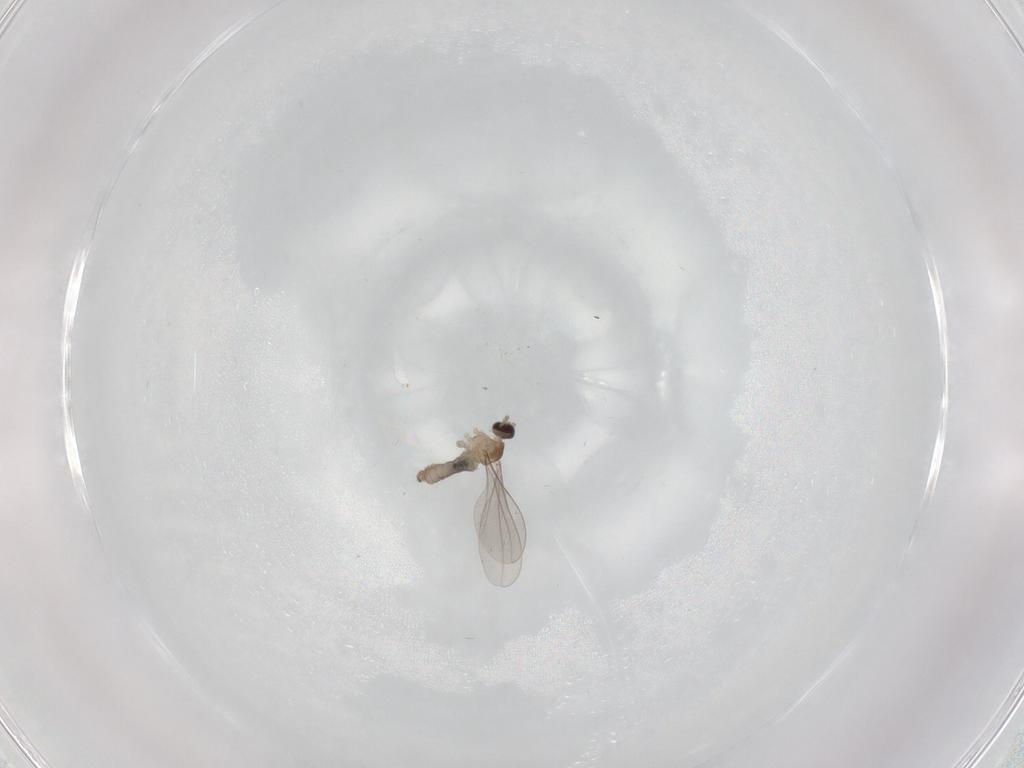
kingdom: Animalia
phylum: Arthropoda
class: Insecta
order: Diptera
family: Cecidomyiidae
